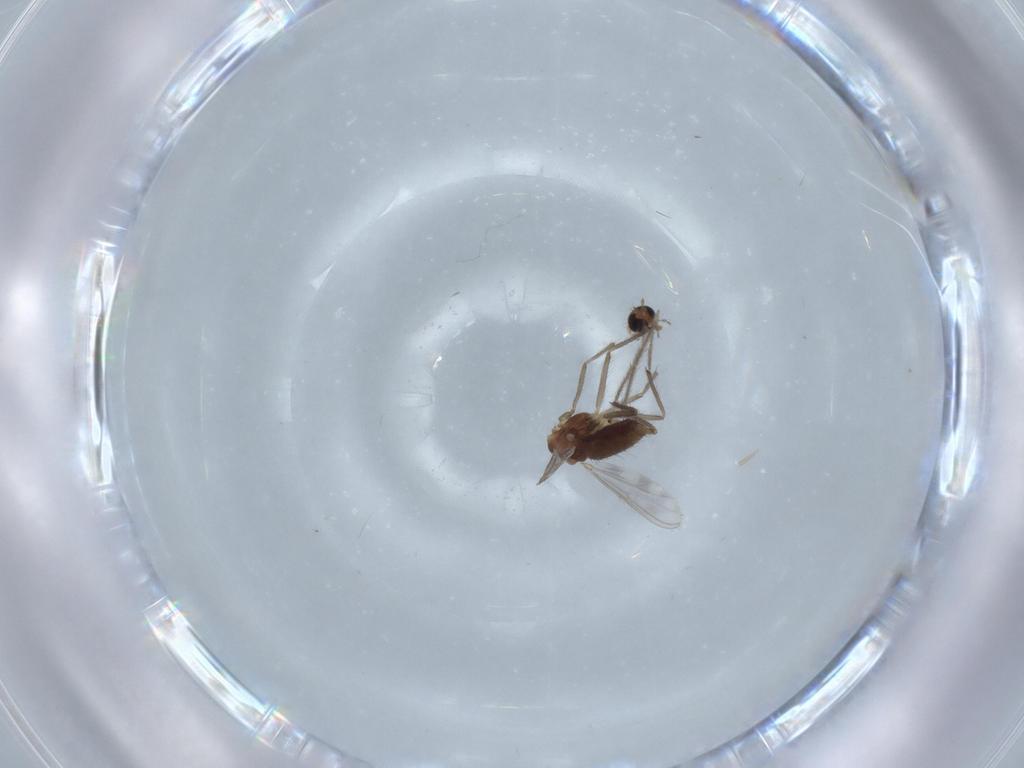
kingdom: Animalia
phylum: Arthropoda
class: Insecta
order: Diptera
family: Chironomidae
